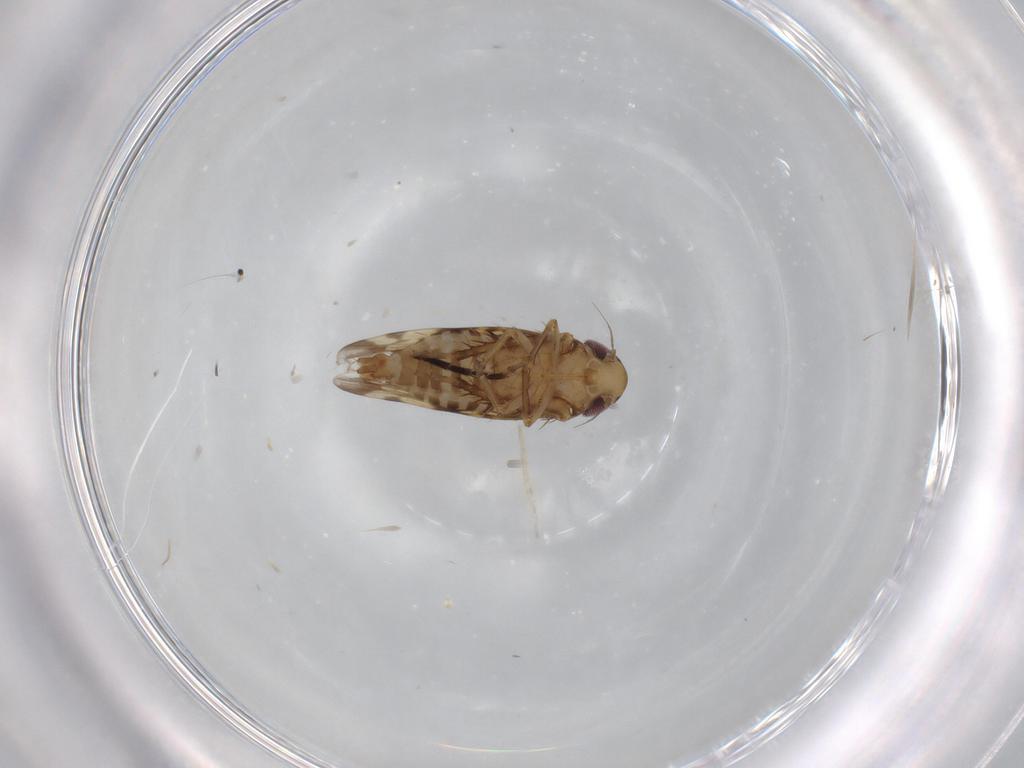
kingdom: Animalia
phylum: Arthropoda
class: Insecta
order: Hemiptera
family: Cicadellidae
